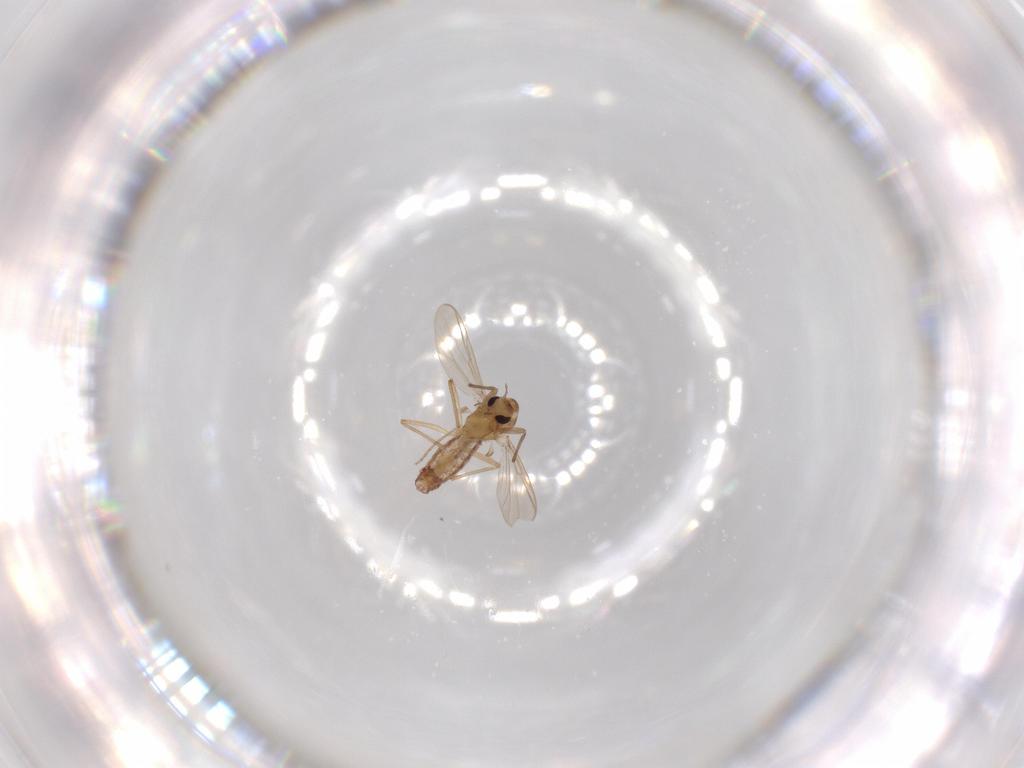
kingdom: Animalia
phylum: Arthropoda
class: Insecta
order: Diptera
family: Chironomidae
